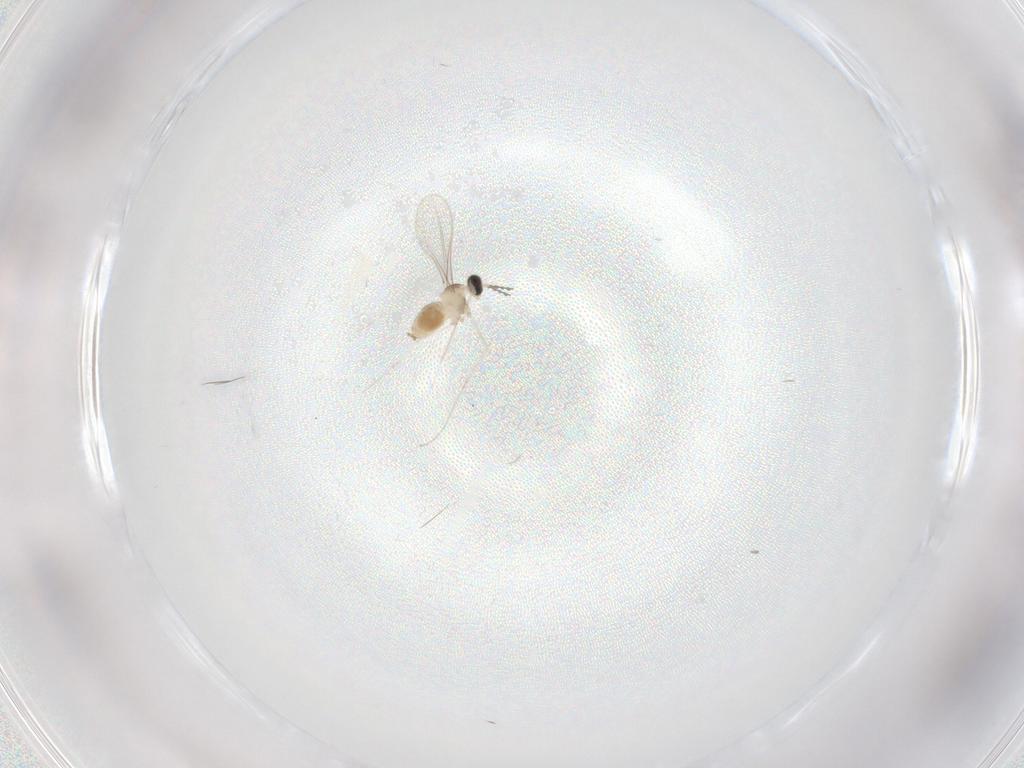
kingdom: Animalia
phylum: Arthropoda
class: Insecta
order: Diptera
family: Cecidomyiidae
